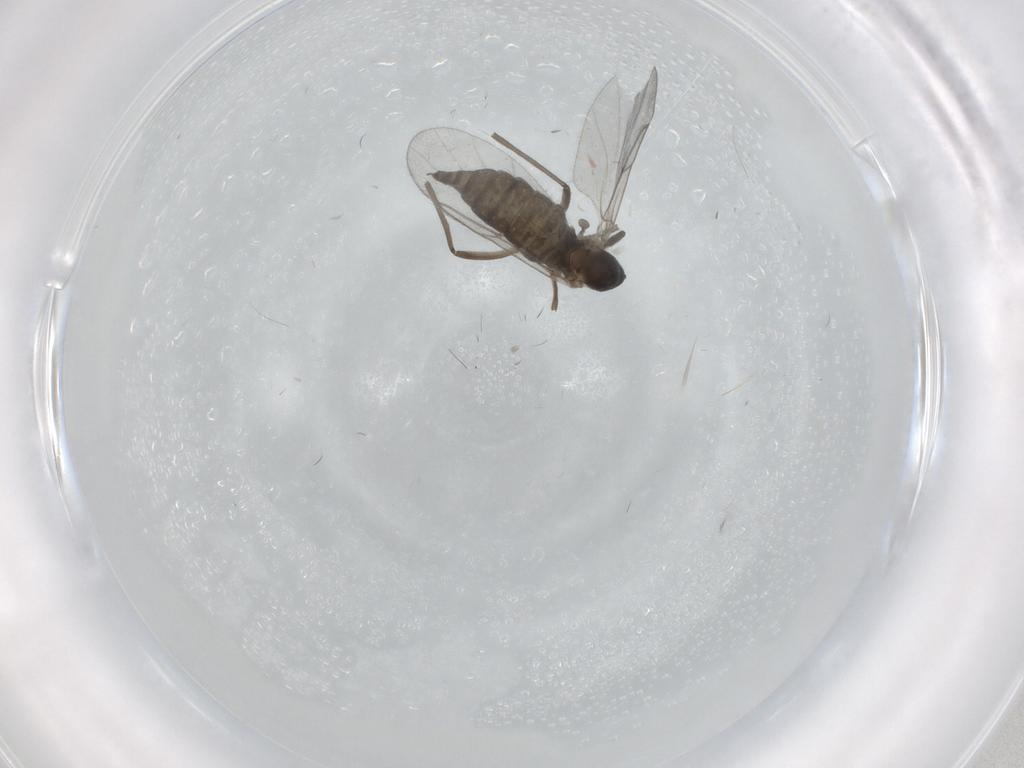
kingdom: Animalia
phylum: Arthropoda
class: Insecta
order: Diptera
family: Cecidomyiidae
